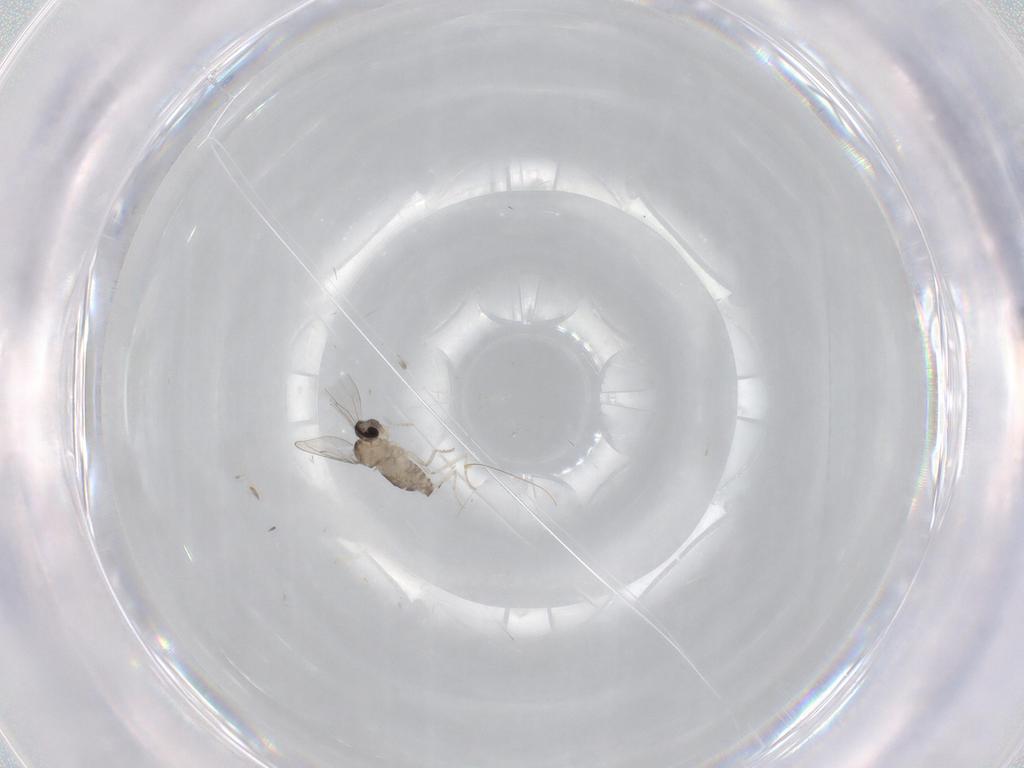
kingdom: Animalia
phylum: Arthropoda
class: Insecta
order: Diptera
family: Cecidomyiidae
